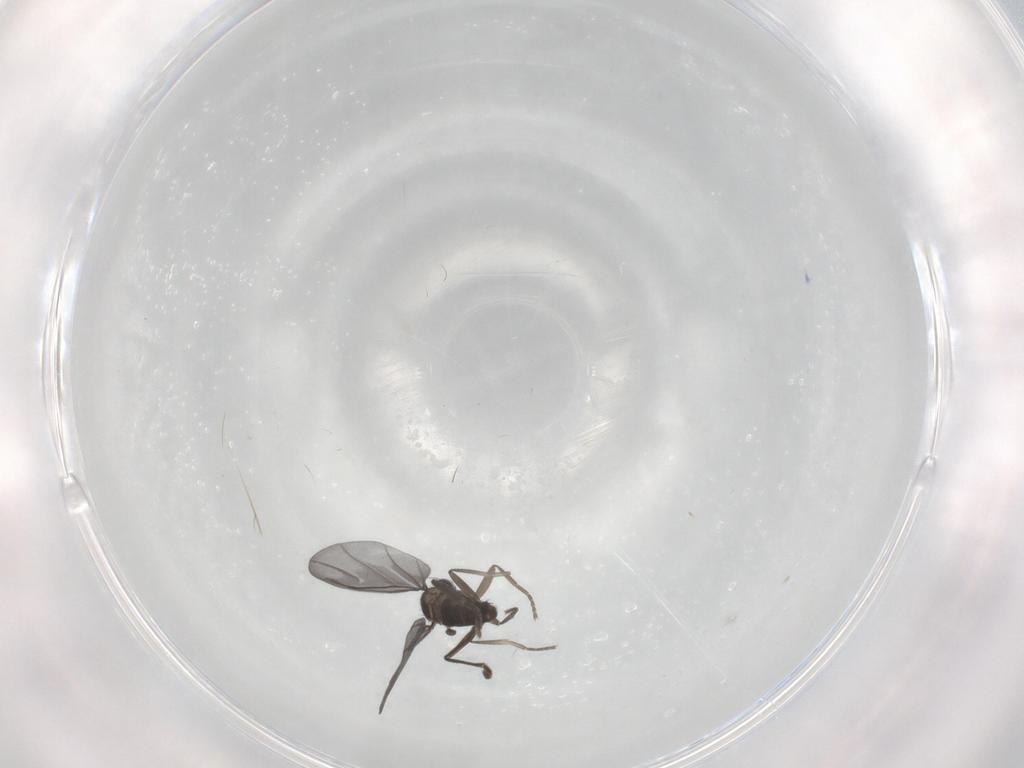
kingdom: Animalia
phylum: Arthropoda
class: Insecta
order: Diptera
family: Phoridae
